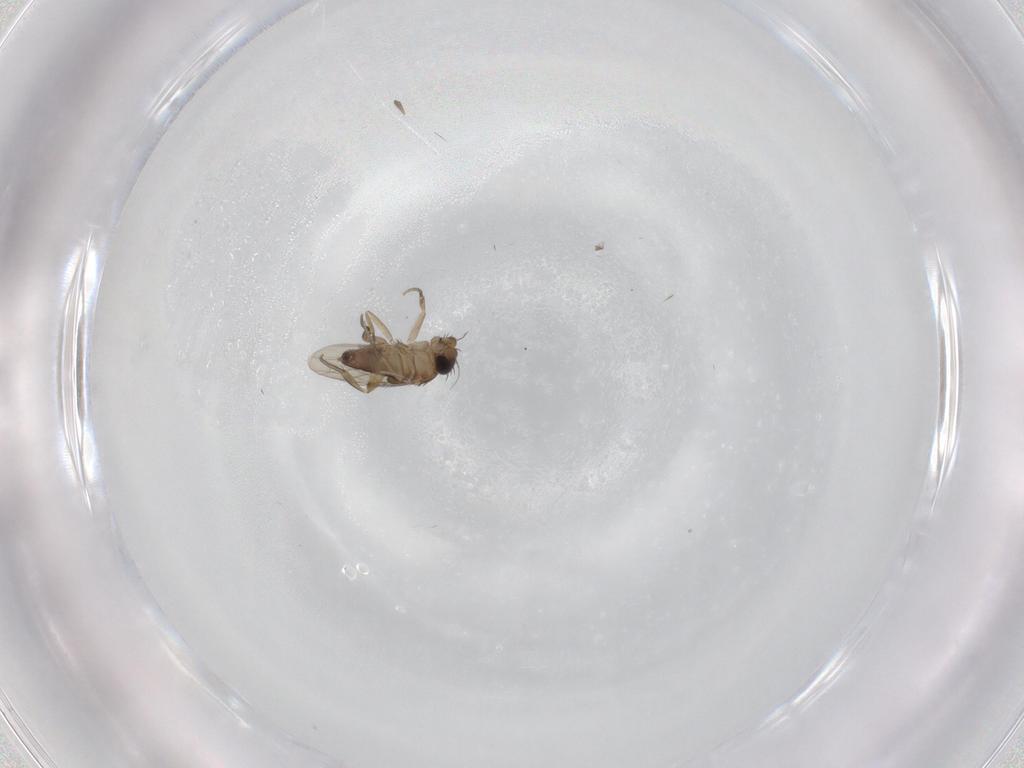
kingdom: Animalia
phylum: Arthropoda
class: Insecta
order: Diptera
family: Phoridae
